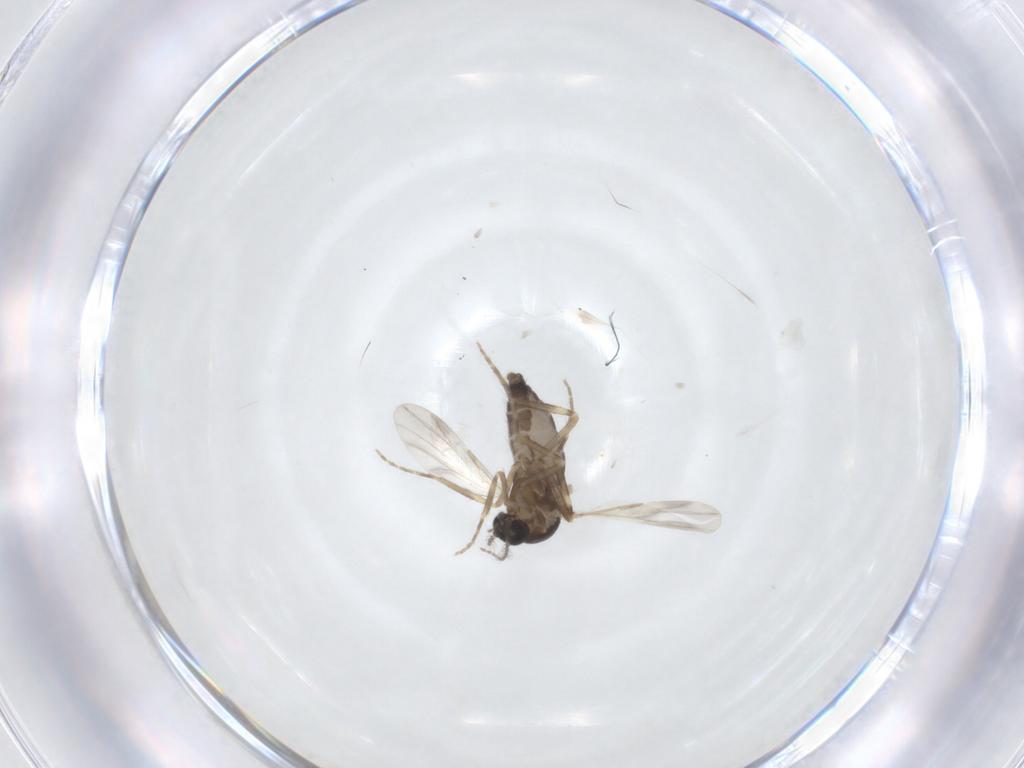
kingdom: Animalia
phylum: Arthropoda
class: Insecta
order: Diptera
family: Ceratopogonidae
